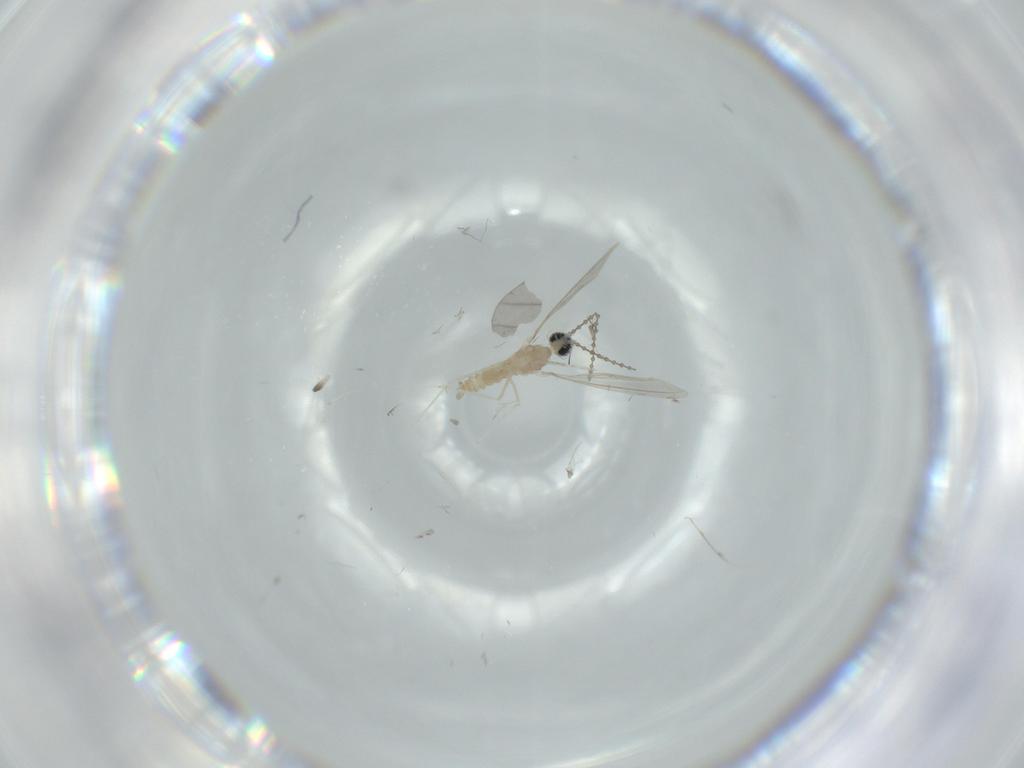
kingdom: Animalia
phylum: Arthropoda
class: Insecta
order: Diptera
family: Cecidomyiidae
